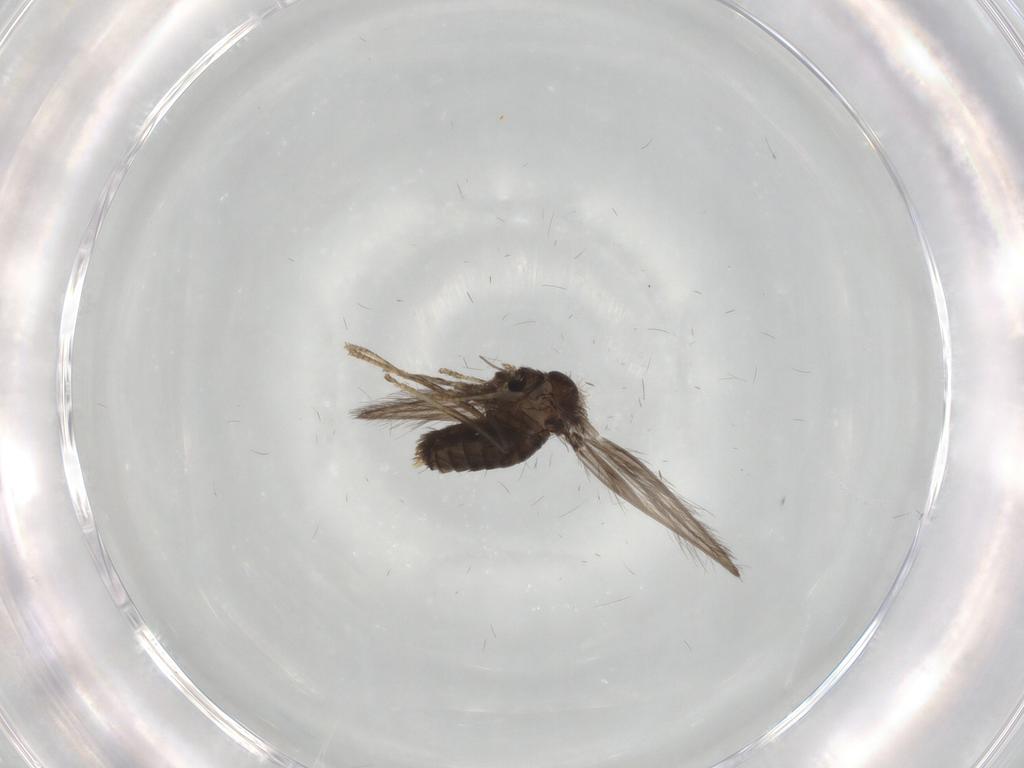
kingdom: Animalia
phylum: Arthropoda
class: Insecta
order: Diptera
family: Psychodidae
